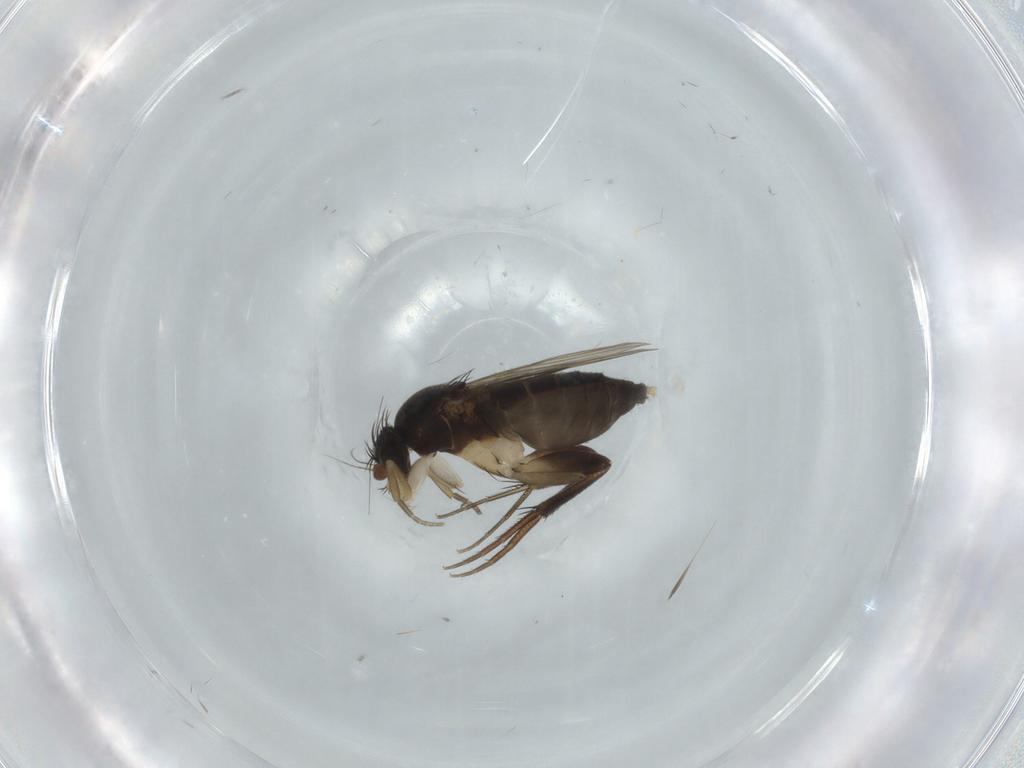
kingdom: Animalia
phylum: Arthropoda
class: Insecta
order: Diptera
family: Phoridae
